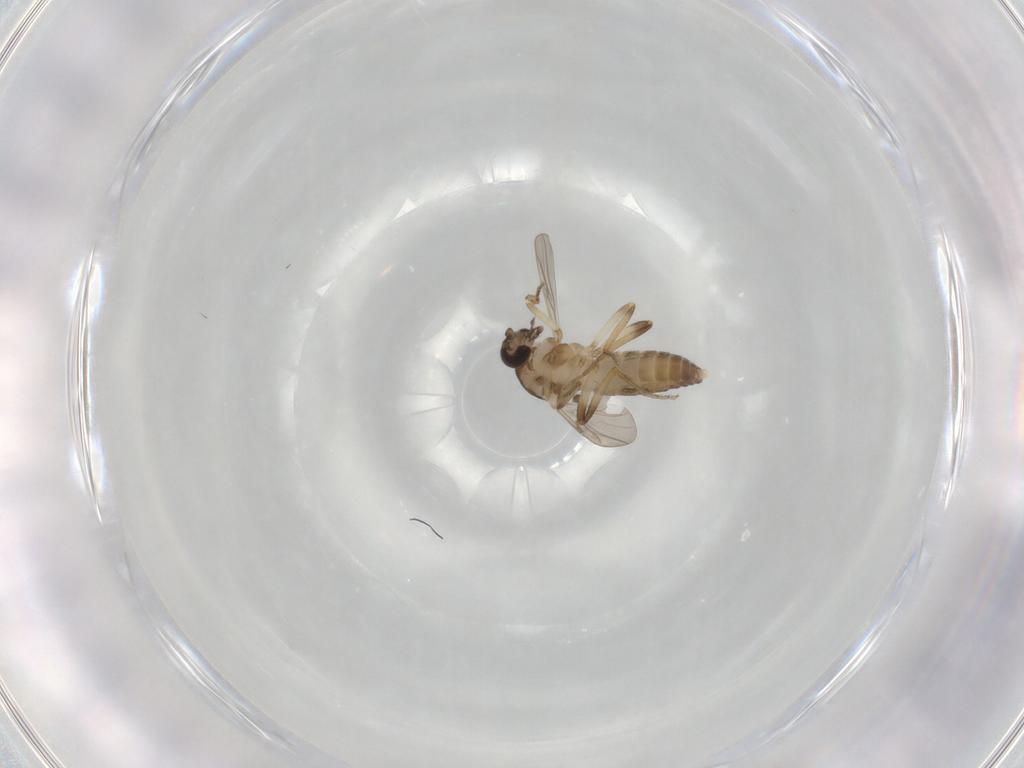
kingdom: Animalia
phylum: Arthropoda
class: Insecta
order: Diptera
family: Ceratopogonidae
